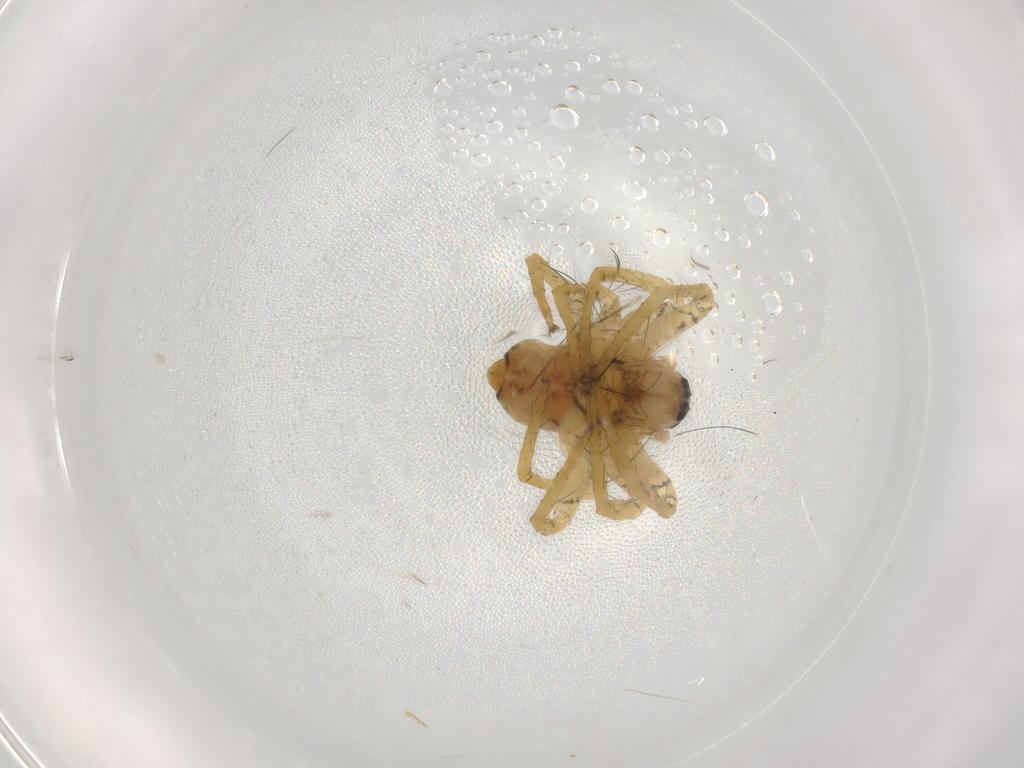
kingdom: Animalia
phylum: Arthropoda
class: Arachnida
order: Araneae
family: Pisauridae
